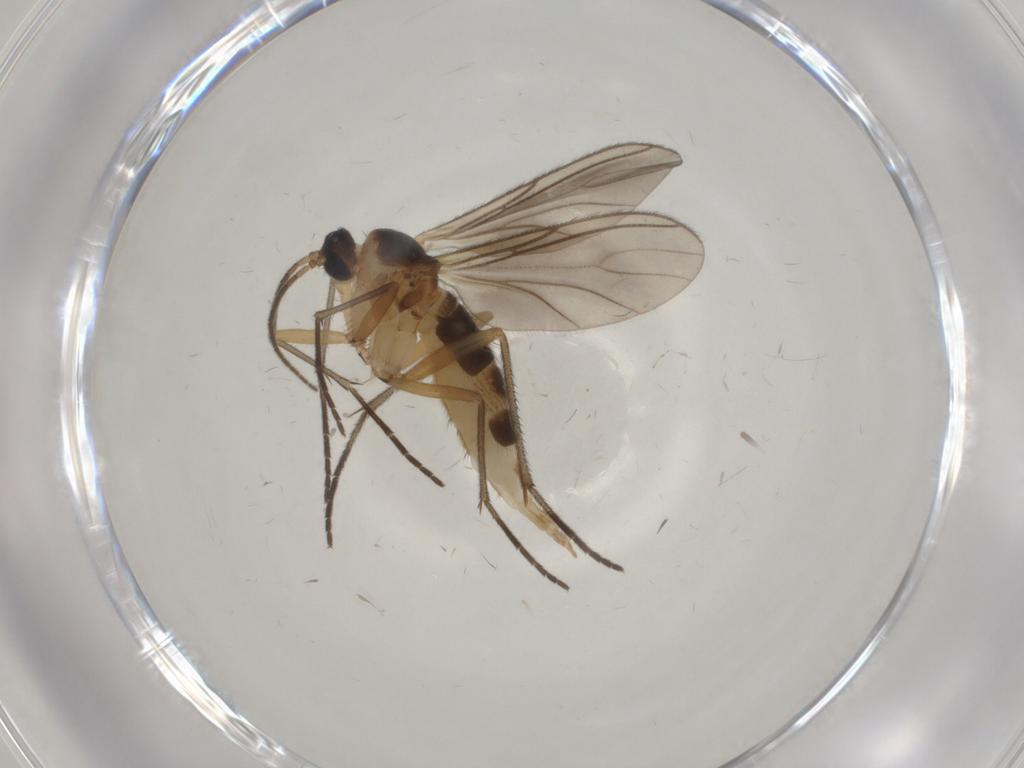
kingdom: Animalia
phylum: Arthropoda
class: Insecta
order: Diptera
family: Sciaridae
